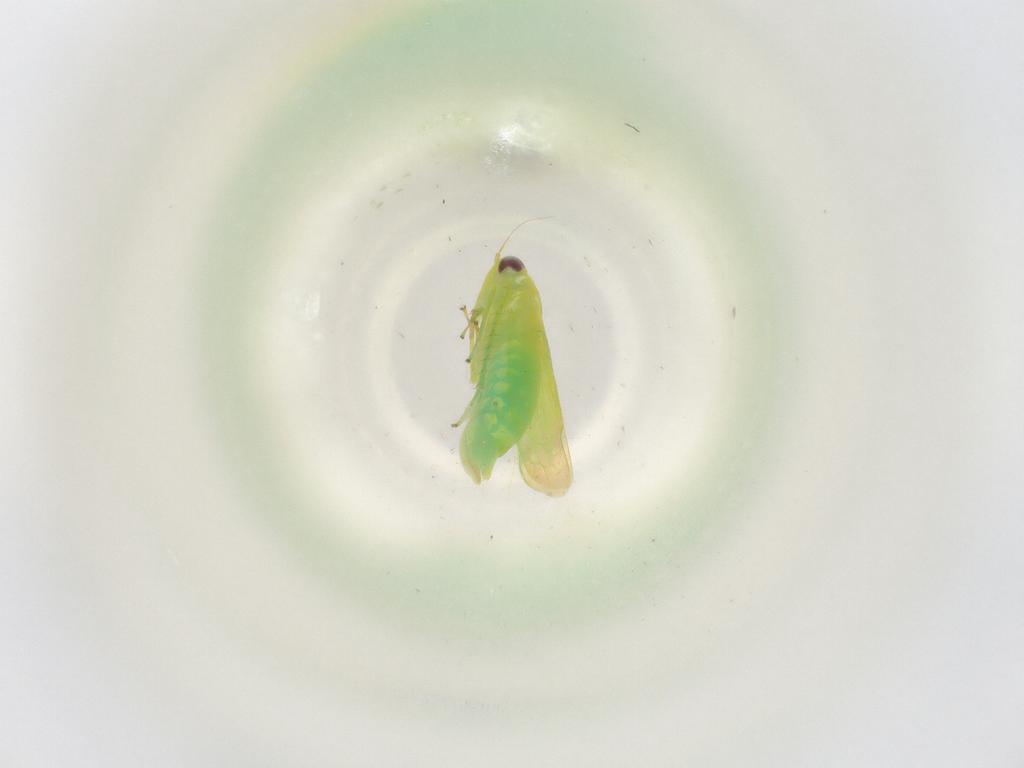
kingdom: Animalia
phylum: Arthropoda
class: Insecta
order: Hemiptera
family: Cicadellidae
